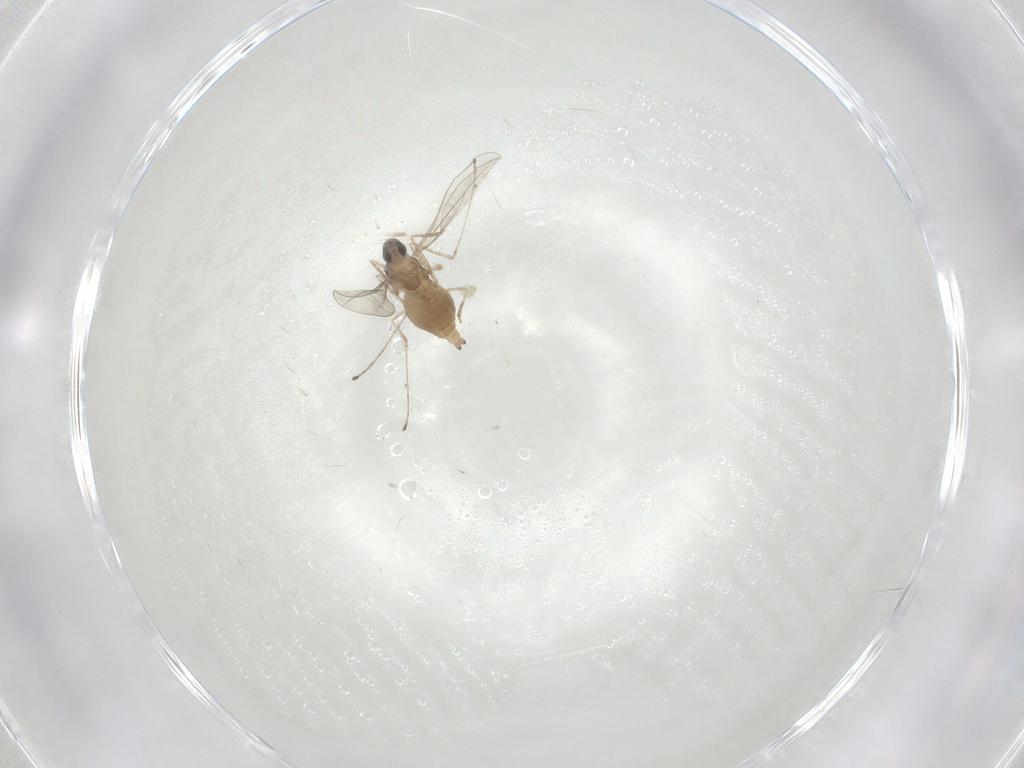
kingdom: Animalia
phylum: Arthropoda
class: Insecta
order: Diptera
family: Cecidomyiidae
